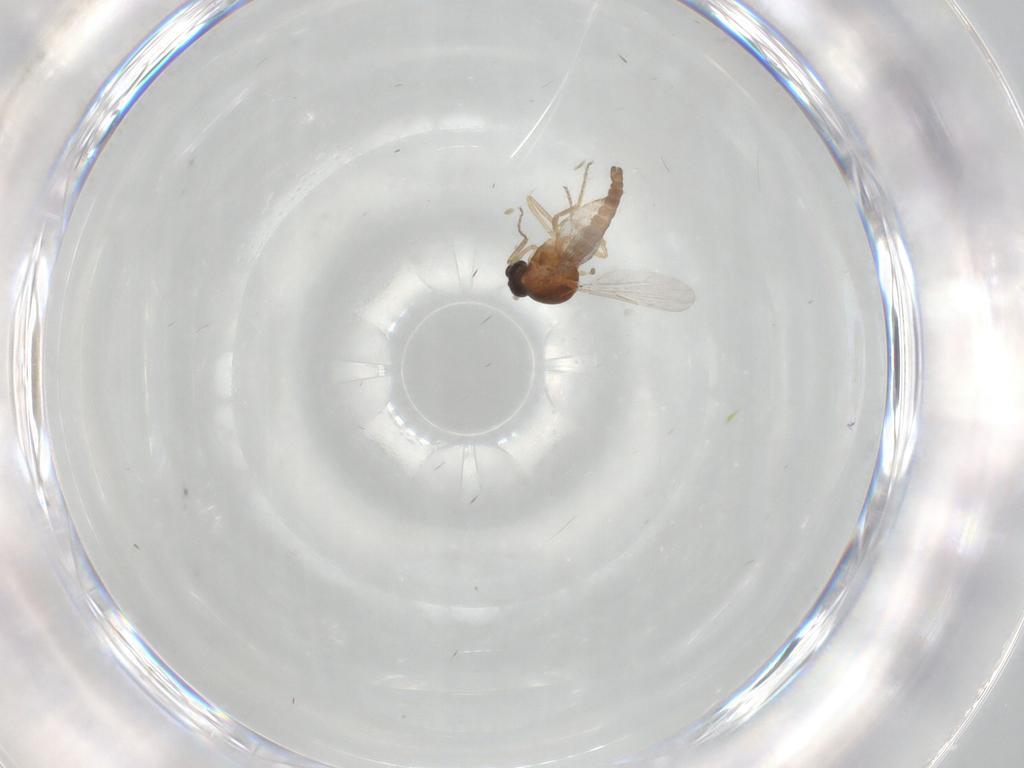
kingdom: Animalia
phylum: Arthropoda
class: Insecta
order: Diptera
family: Ceratopogonidae
